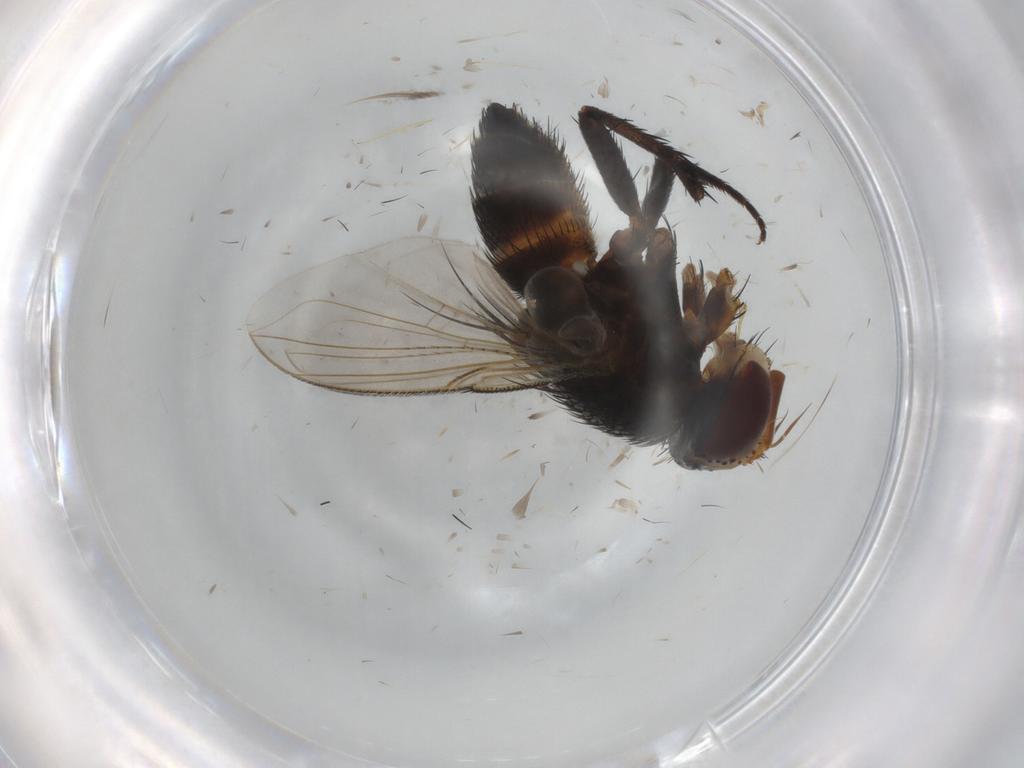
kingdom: Animalia
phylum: Arthropoda
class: Insecta
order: Diptera
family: Psychodidae
